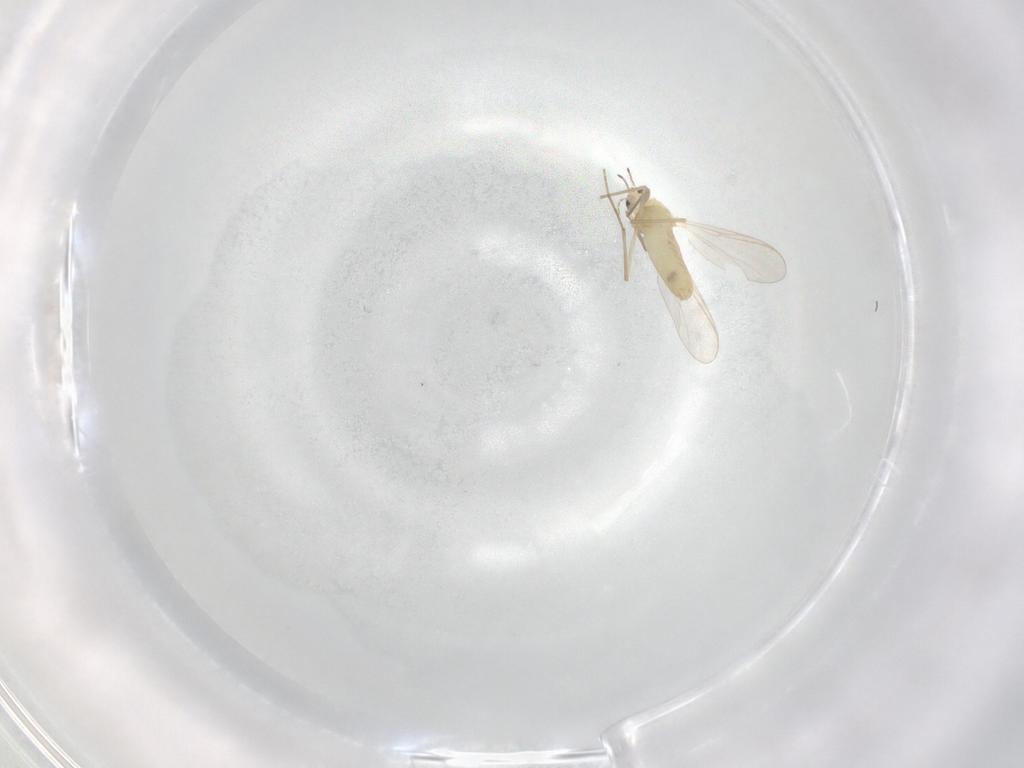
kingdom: Animalia
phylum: Arthropoda
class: Insecta
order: Diptera
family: Chironomidae
